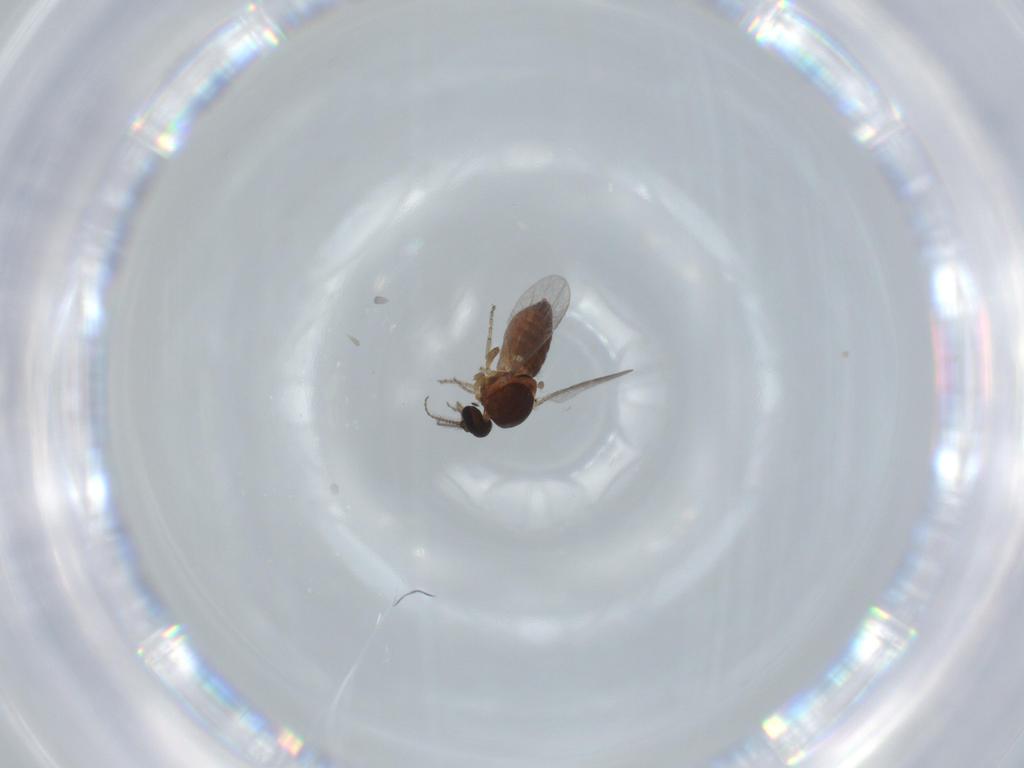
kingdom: Animalia
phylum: Arthropoda
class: Insecta
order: Diptera
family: Ceratopogonidae
